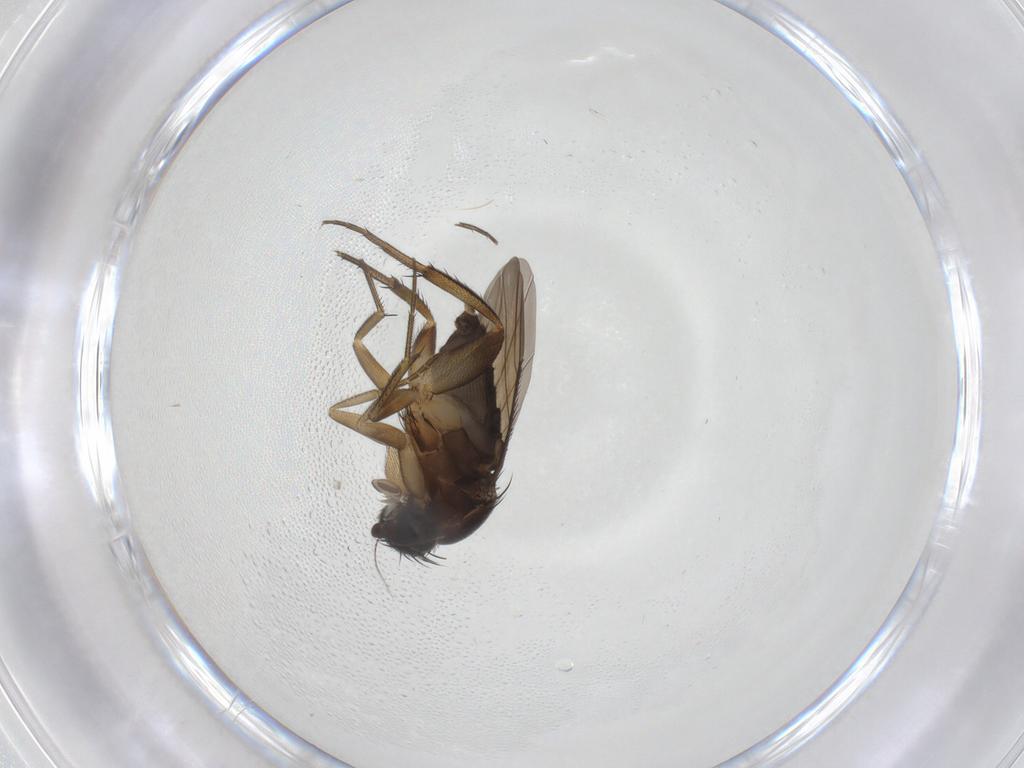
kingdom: Animalia
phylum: Arthropoda
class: Insecta
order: Diptera
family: Phoridae
